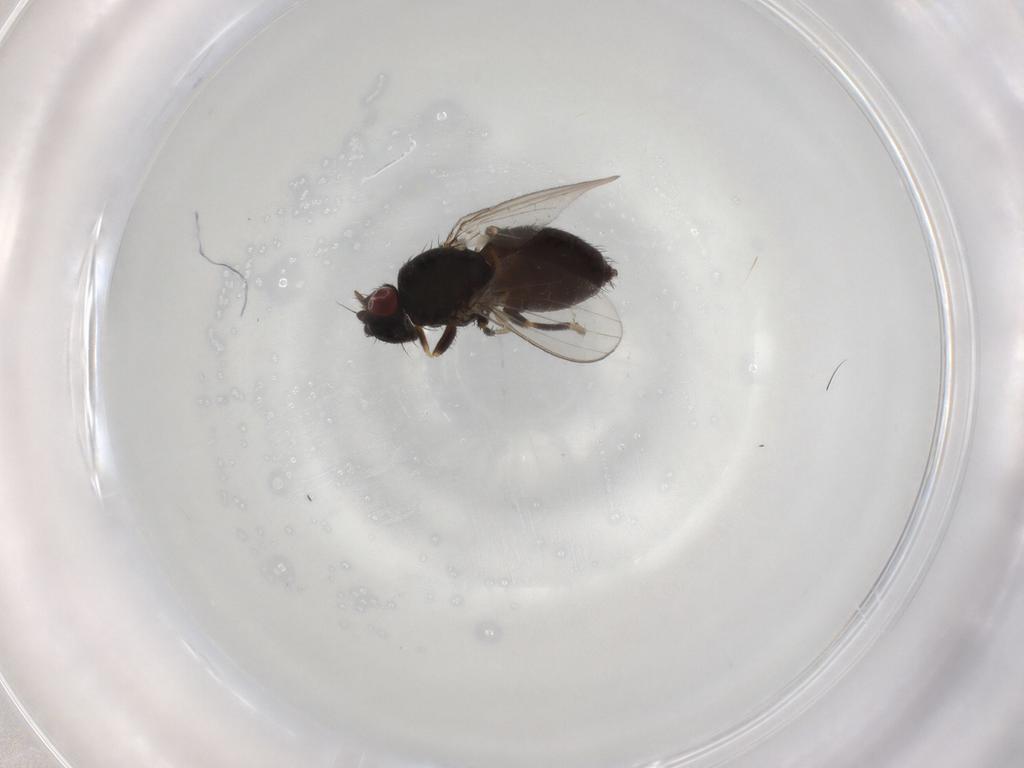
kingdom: Animalia
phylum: Arthropoda
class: Insecta
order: Diptera
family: Milichiidae
